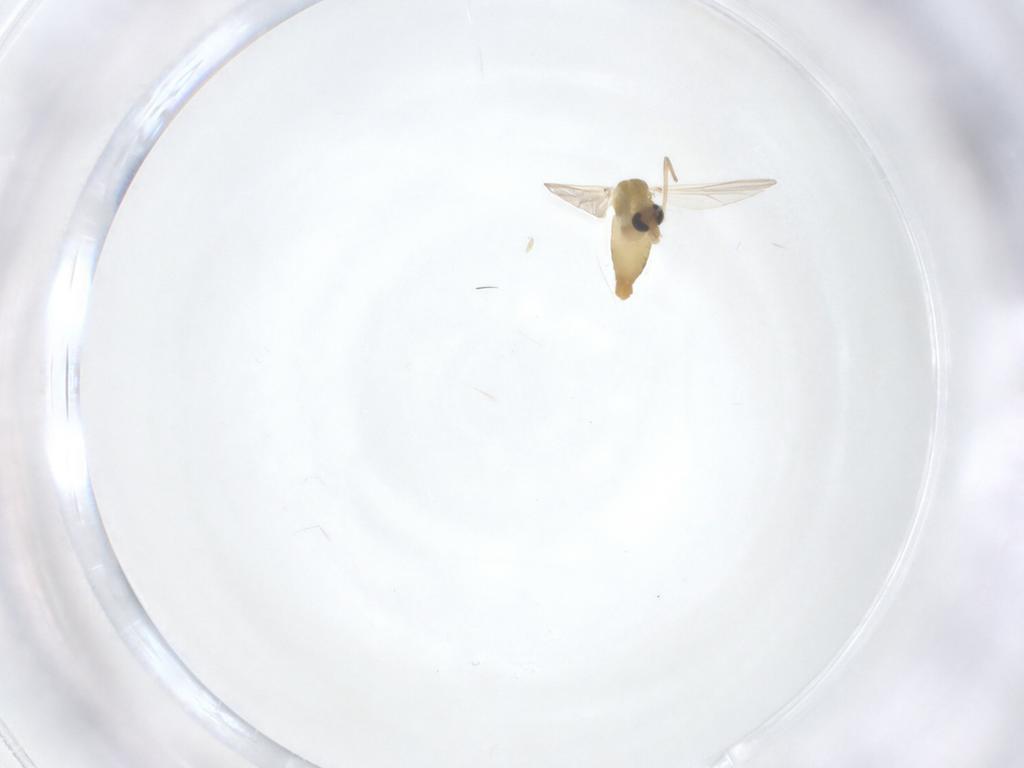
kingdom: Animalia
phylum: Arthropoda
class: Insecta
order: Diptera
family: Chironomidae
